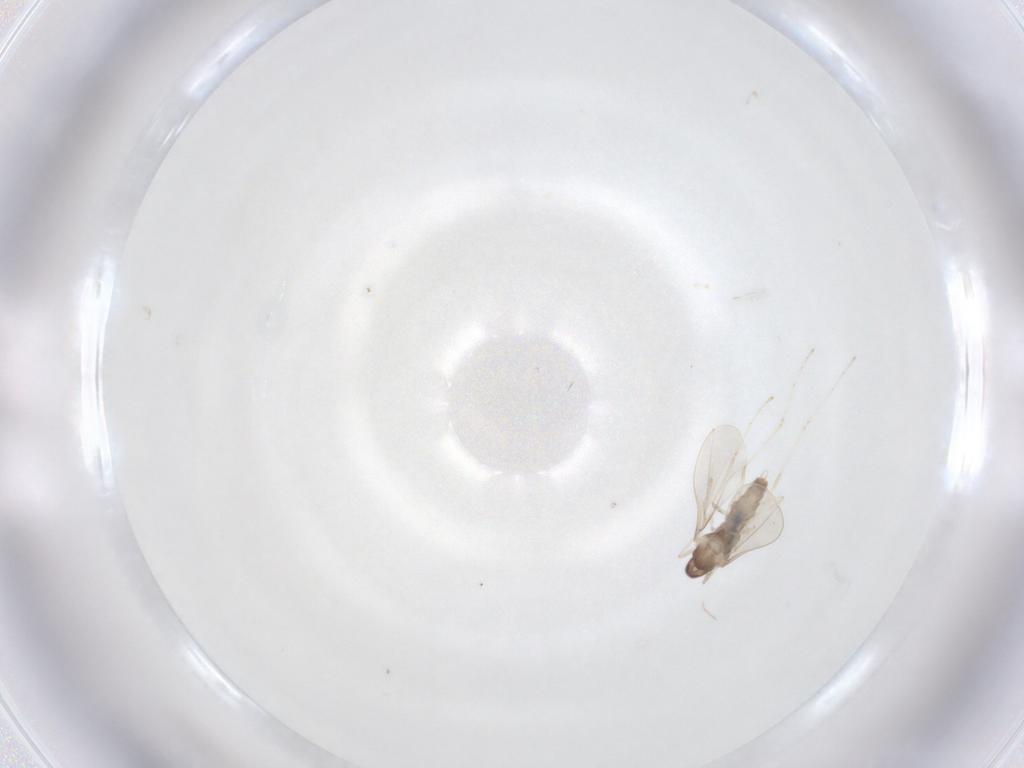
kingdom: Animalia
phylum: Arthropoda
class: Insecta
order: Diptera
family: Cecidomyiidae
